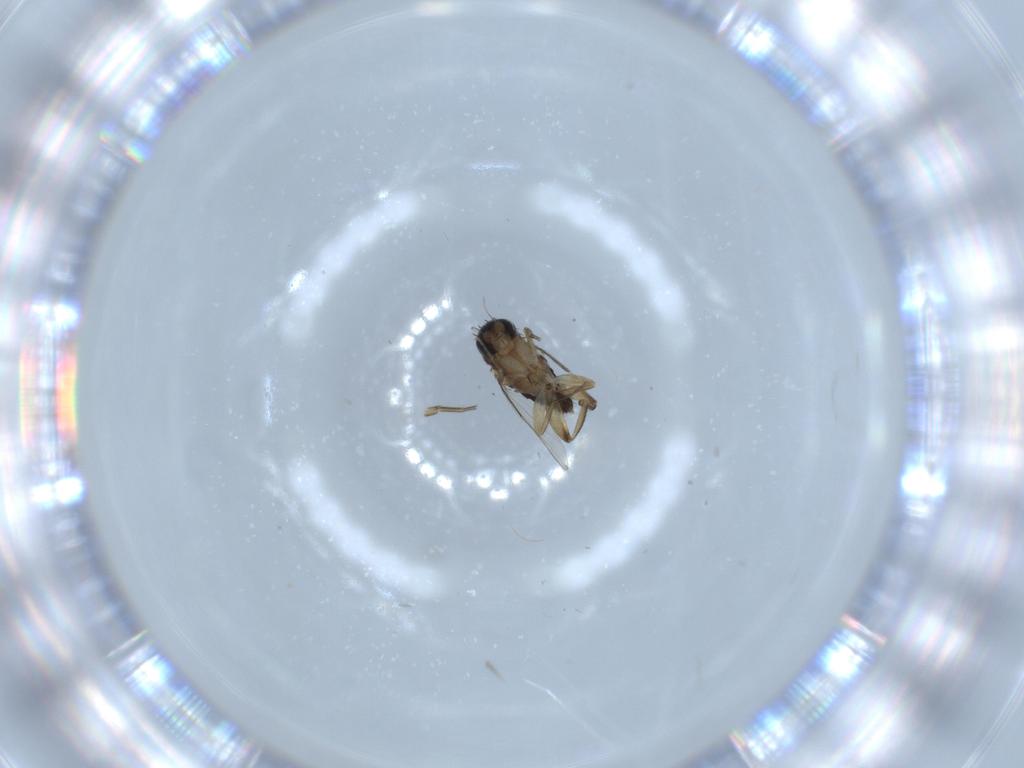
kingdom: Animalia
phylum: Arthropoda
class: Insecta
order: Diptera
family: Phoridae
